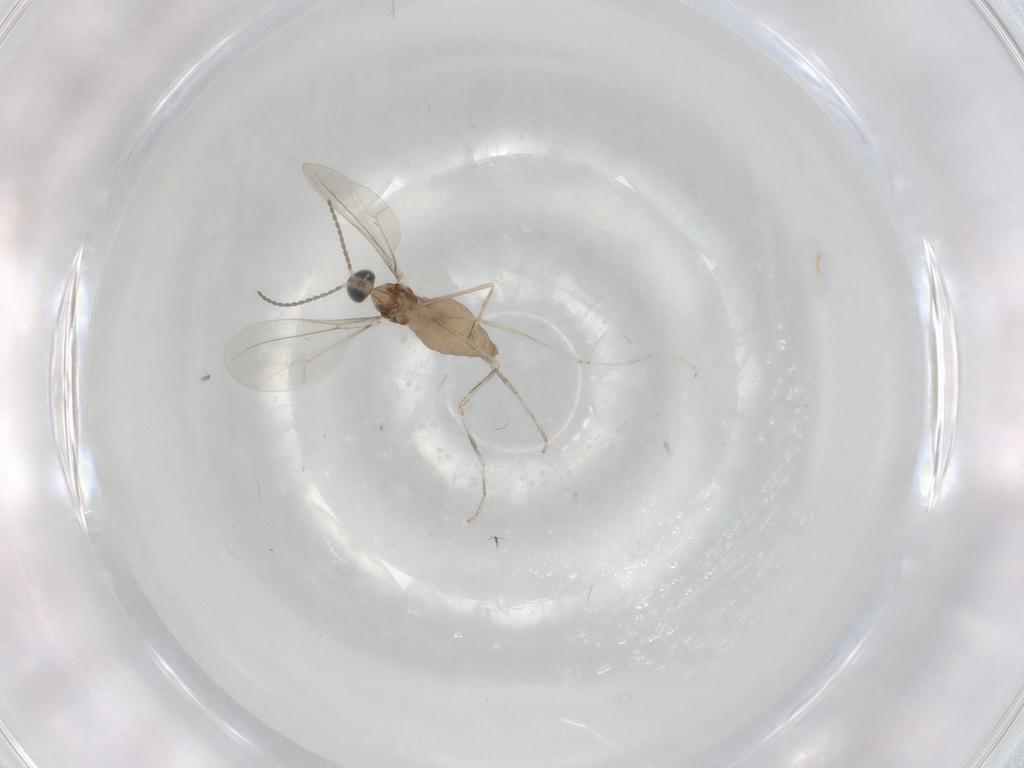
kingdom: Animalia
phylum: Arthropoda
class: Insecta
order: Diptera
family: Cecidomyiidae
